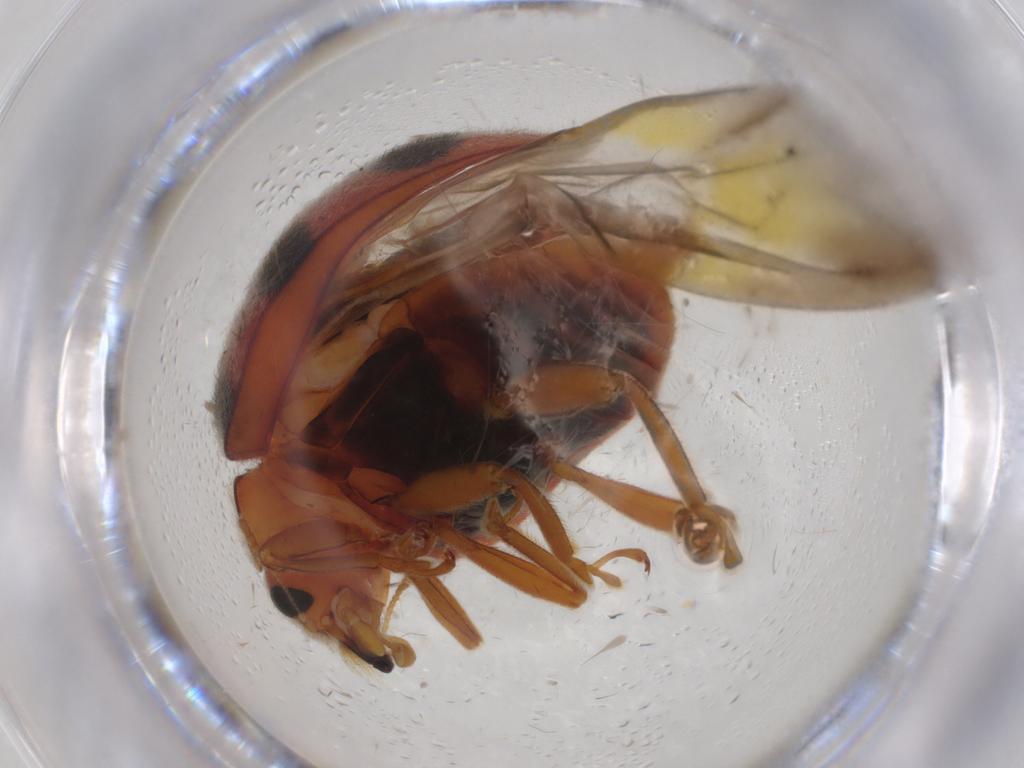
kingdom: Animalia
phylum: Arthropoda
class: Insecta
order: Coleoptera
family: Coccinellidae
